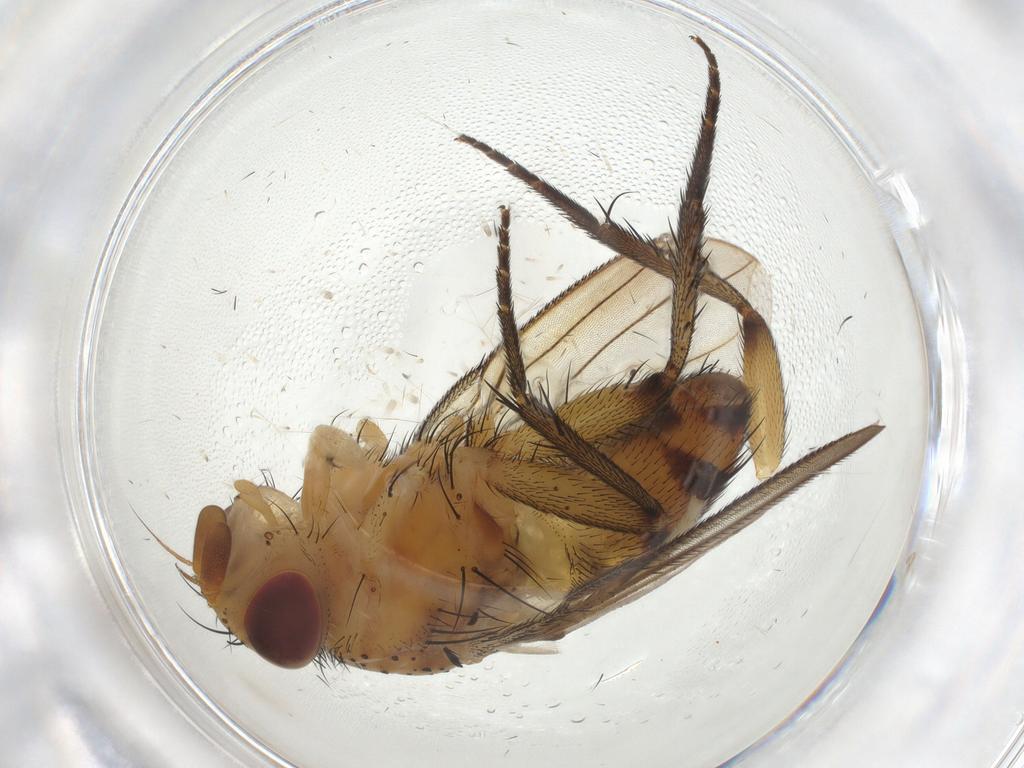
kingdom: Animalia
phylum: Arthropoda
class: Insecta
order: Diptera
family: Tachinidae
